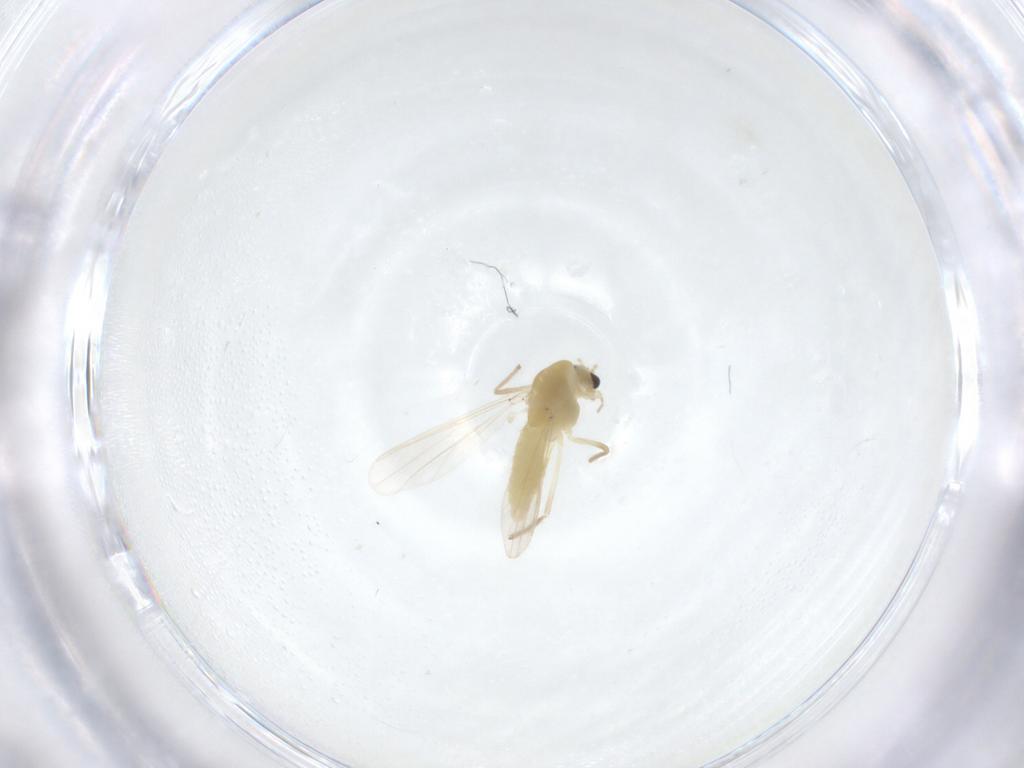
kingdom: Animalia
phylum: Arthropoda
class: Insecta
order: Diptera
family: Chironomidae
